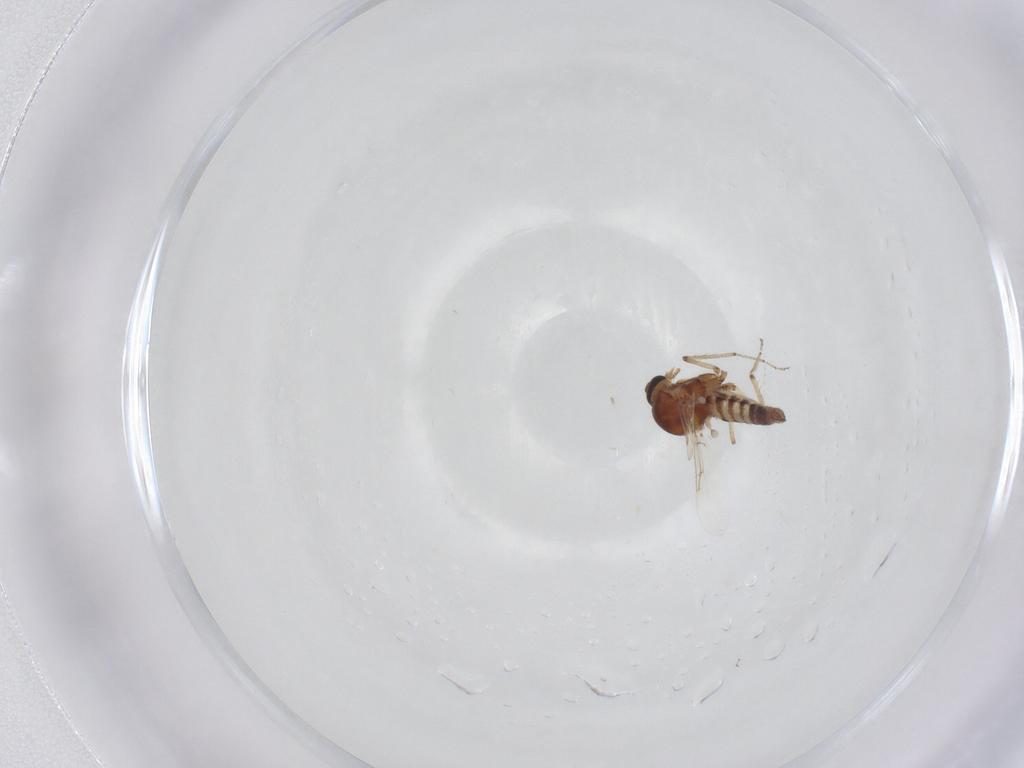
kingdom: Animalia
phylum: Arthropoda
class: Insecta
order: Diptera
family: Ceratopogonidae
